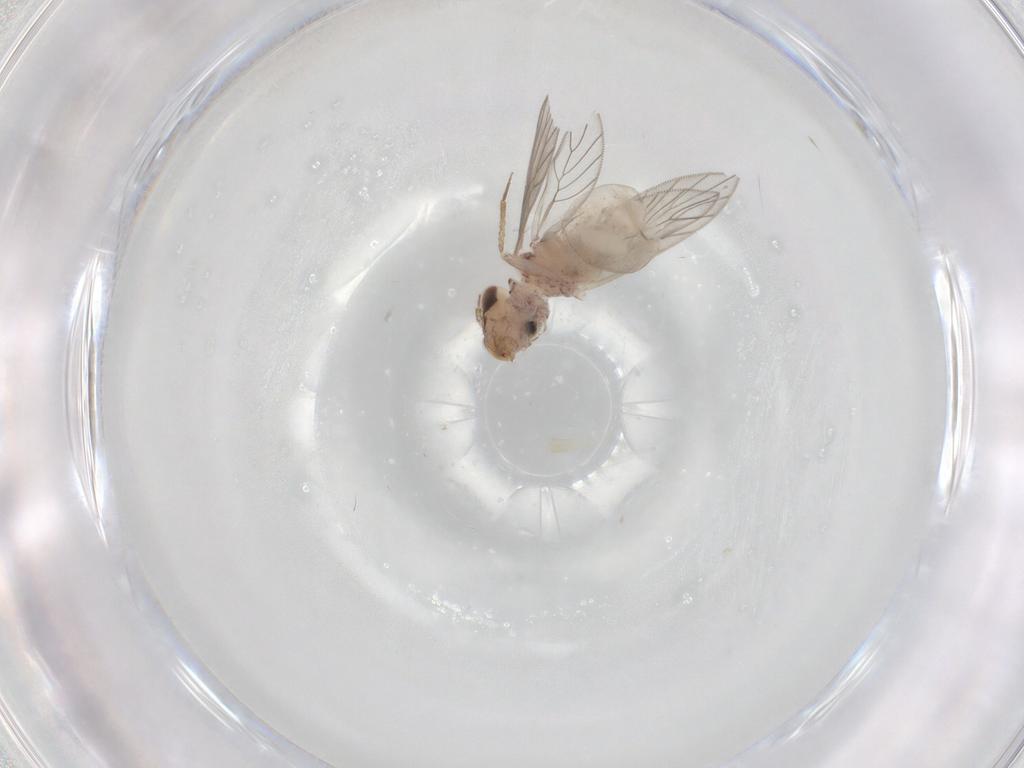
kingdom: Animalia
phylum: Arthropoda
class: Insecta
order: Psocodea
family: Lepidopsocidae
